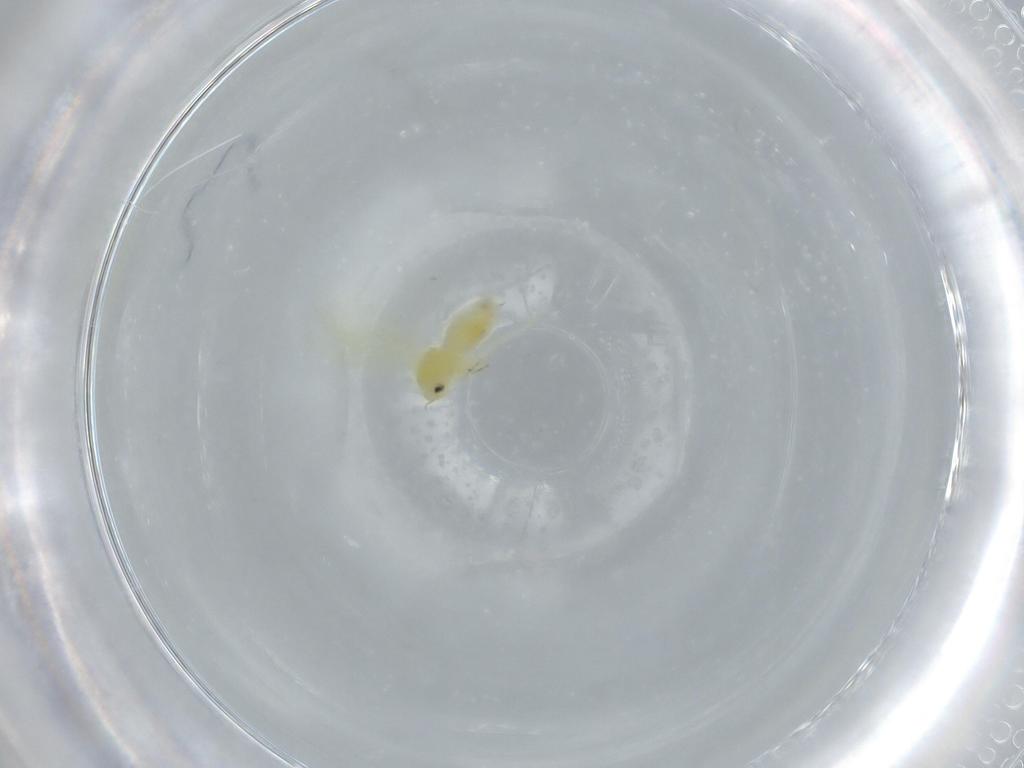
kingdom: Animalia
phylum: Arthropoda
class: Insecta
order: Hemiptera
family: Aleyrodidae
